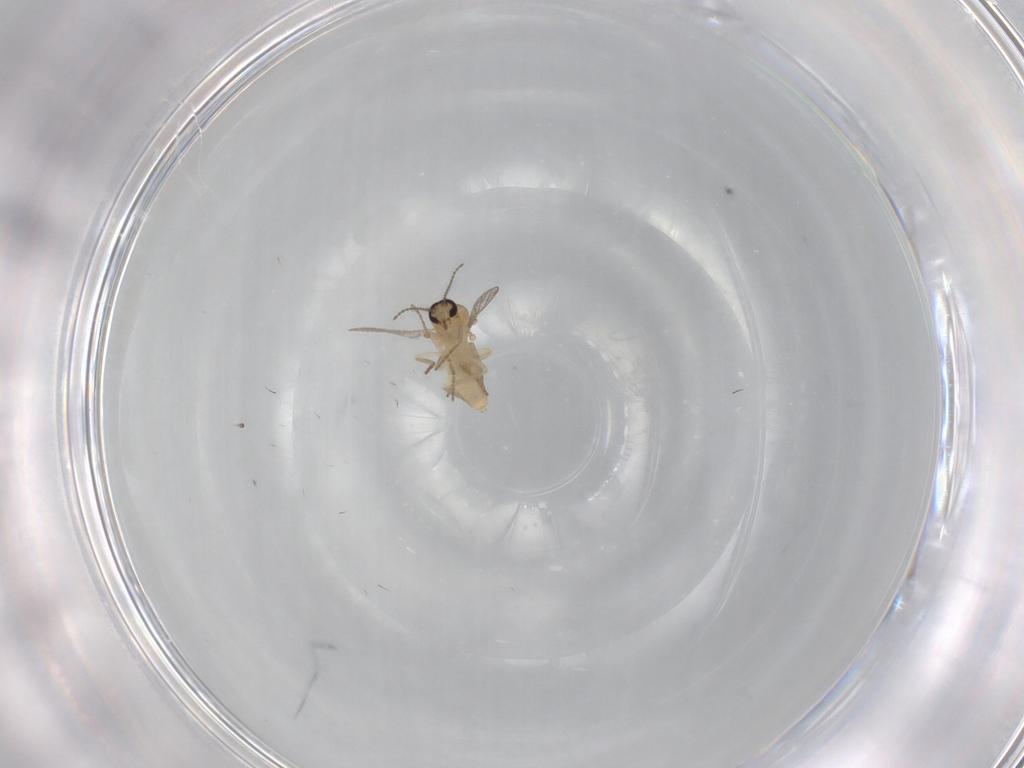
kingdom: Animalia
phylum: Arthropoda
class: Insecta
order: Diptera
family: Ceratopogonidae
